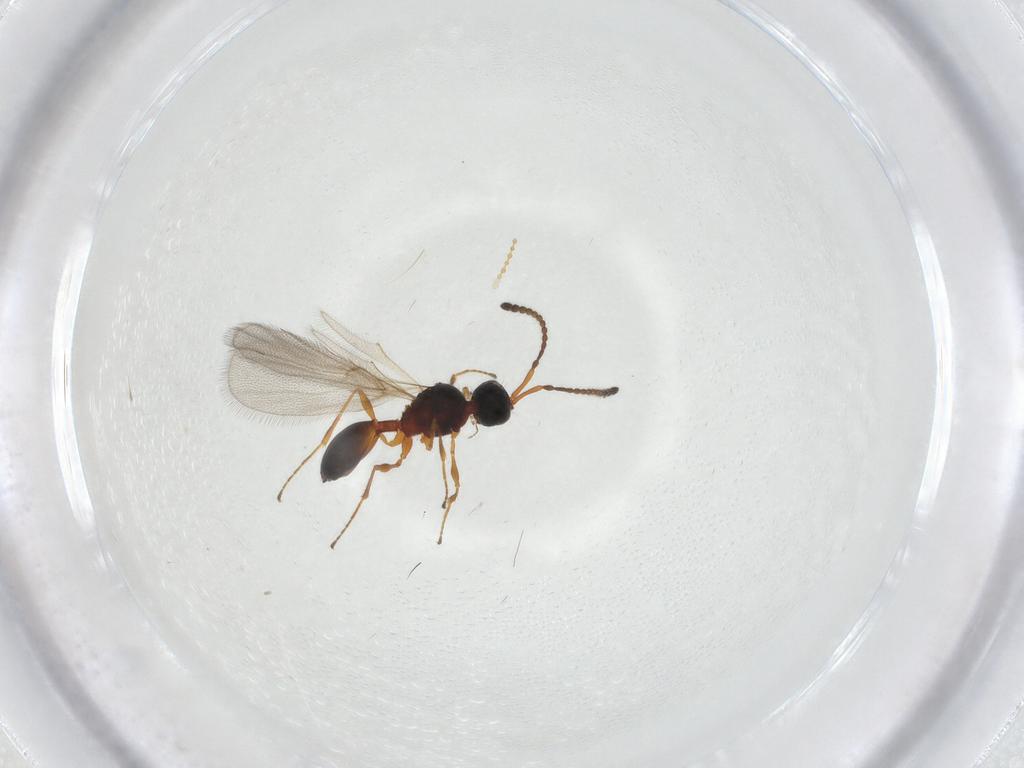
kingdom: Animalia
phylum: Arthropoda
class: Insecta
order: Hymenoptera
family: Diapriidae
